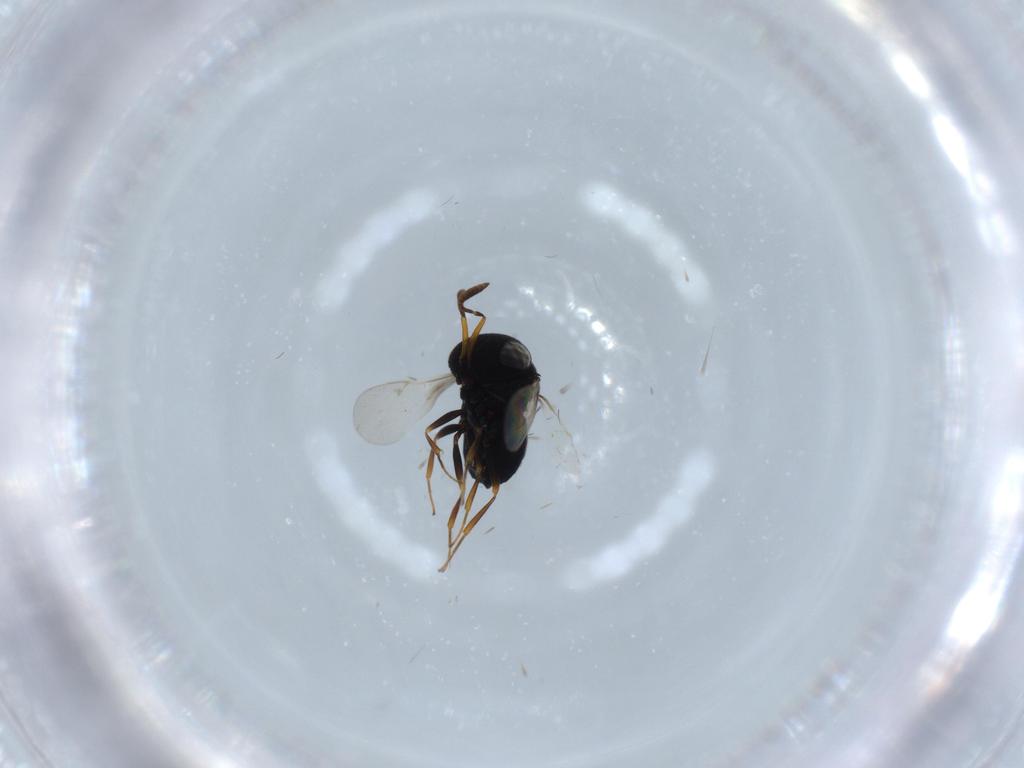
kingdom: Animalia
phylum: Arthropoda
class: Insecta
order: Hymenoptera
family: Scelionidae
